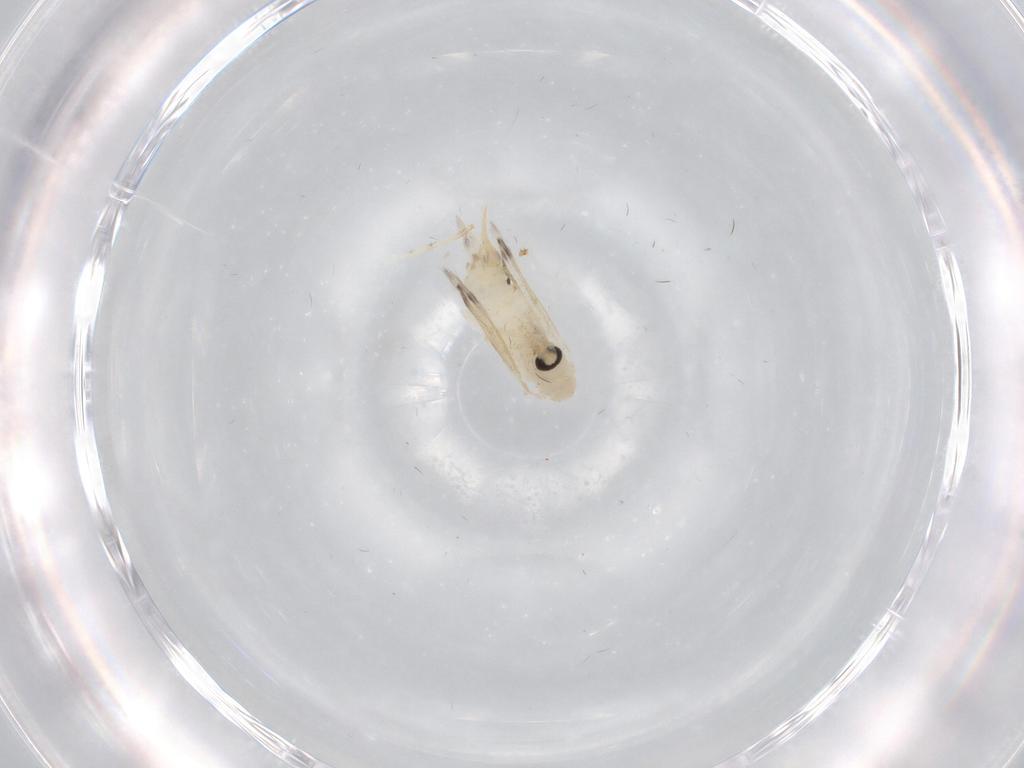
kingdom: Animalia
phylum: Arthropoda
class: Insecta
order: Diptera
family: Psychodidae
